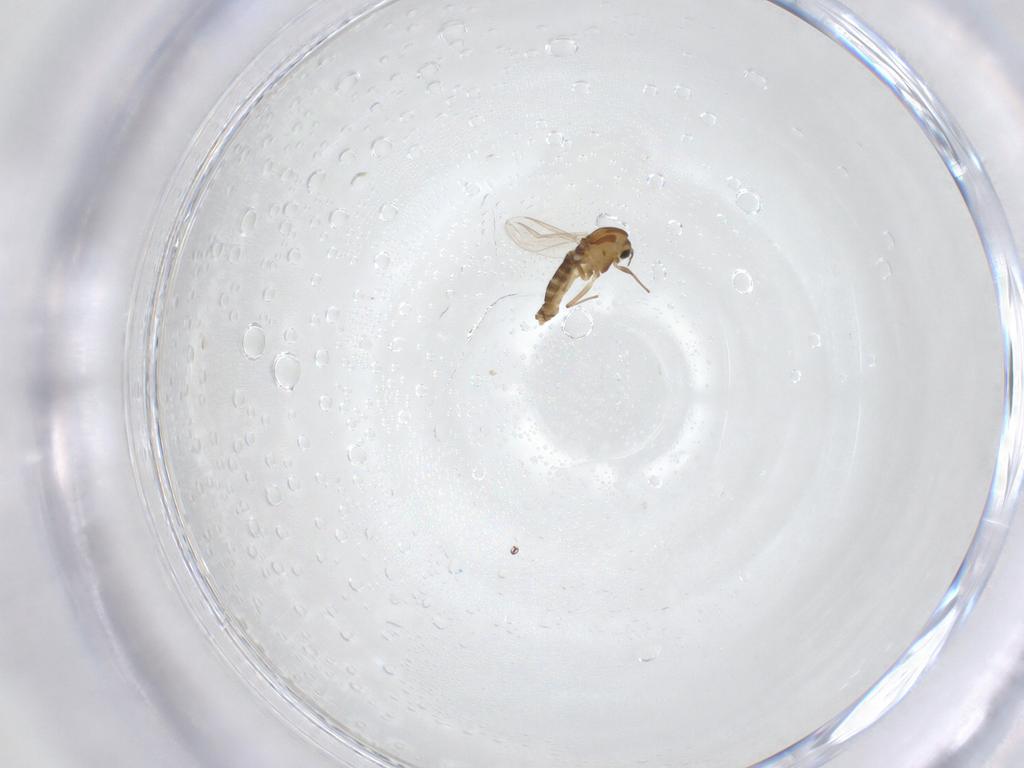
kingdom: Animalia
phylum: Arthropoda
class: Insecta
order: Diptera
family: Chironomidae
